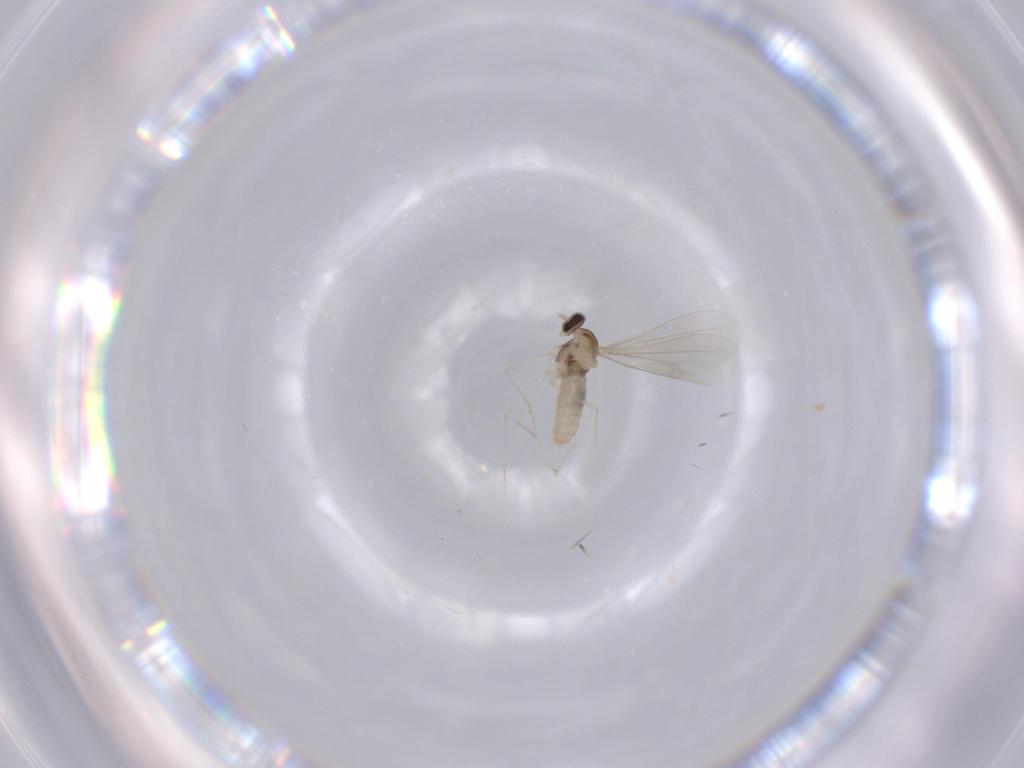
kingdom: Animalia
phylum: Arthropoda
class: Insecta
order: Diptera
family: Cecidomyiidae
